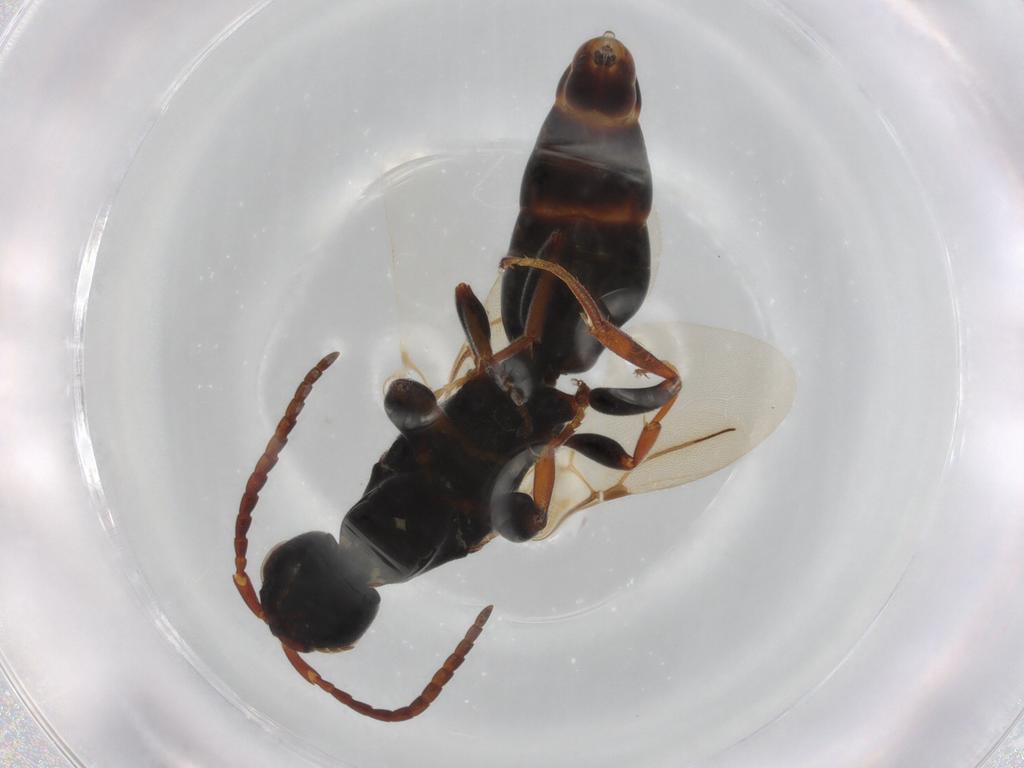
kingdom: Animalia
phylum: Arthropoda
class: Insecta
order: Hymenoptera
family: Bethylidae
